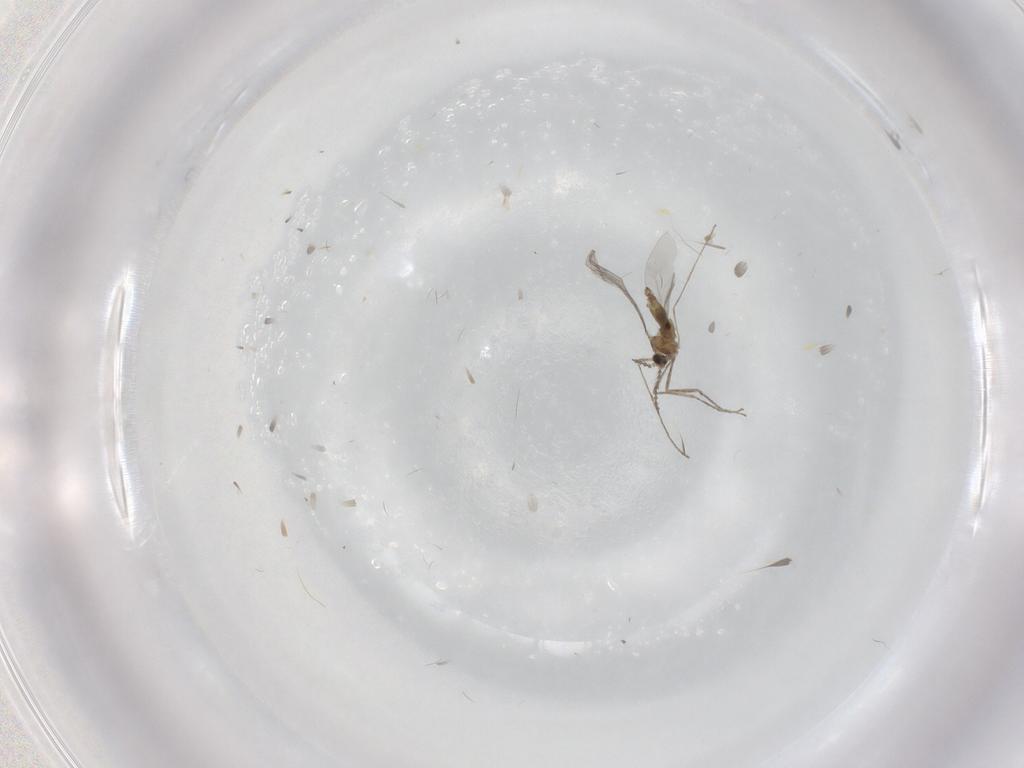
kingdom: Animalia
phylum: Arthropoda
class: Insecta
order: Diptera
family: Cecidomyiidae
